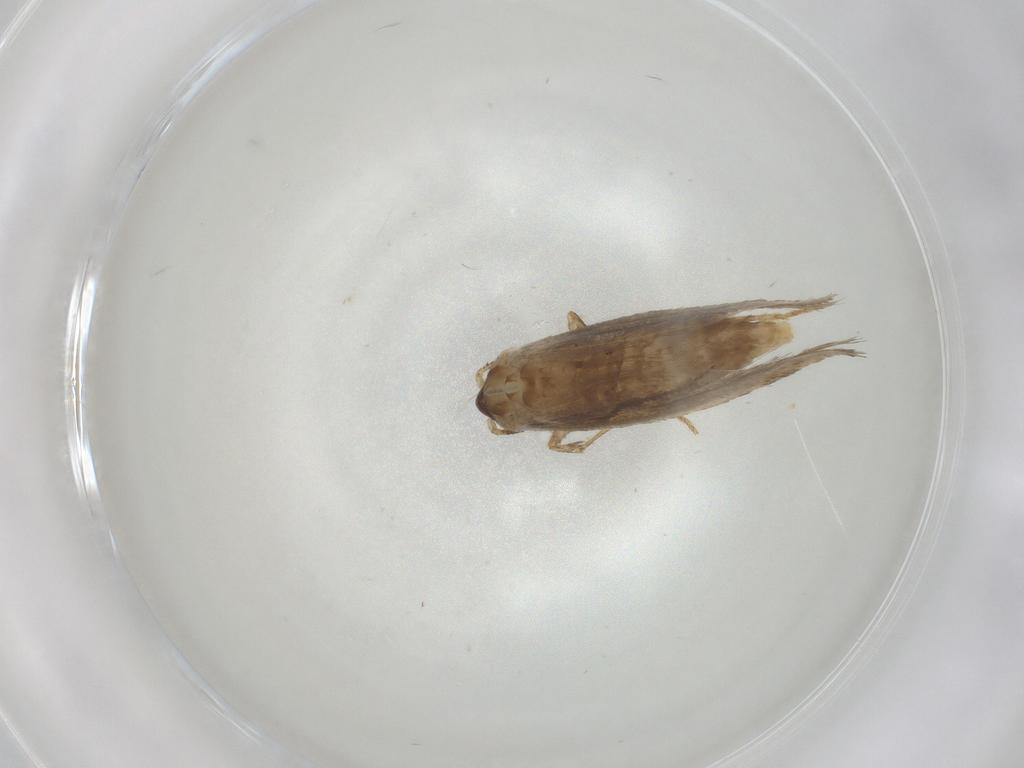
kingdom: Animalia
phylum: Arthropoda
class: Insecta
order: Lepidoptera
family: Nepticulidae
